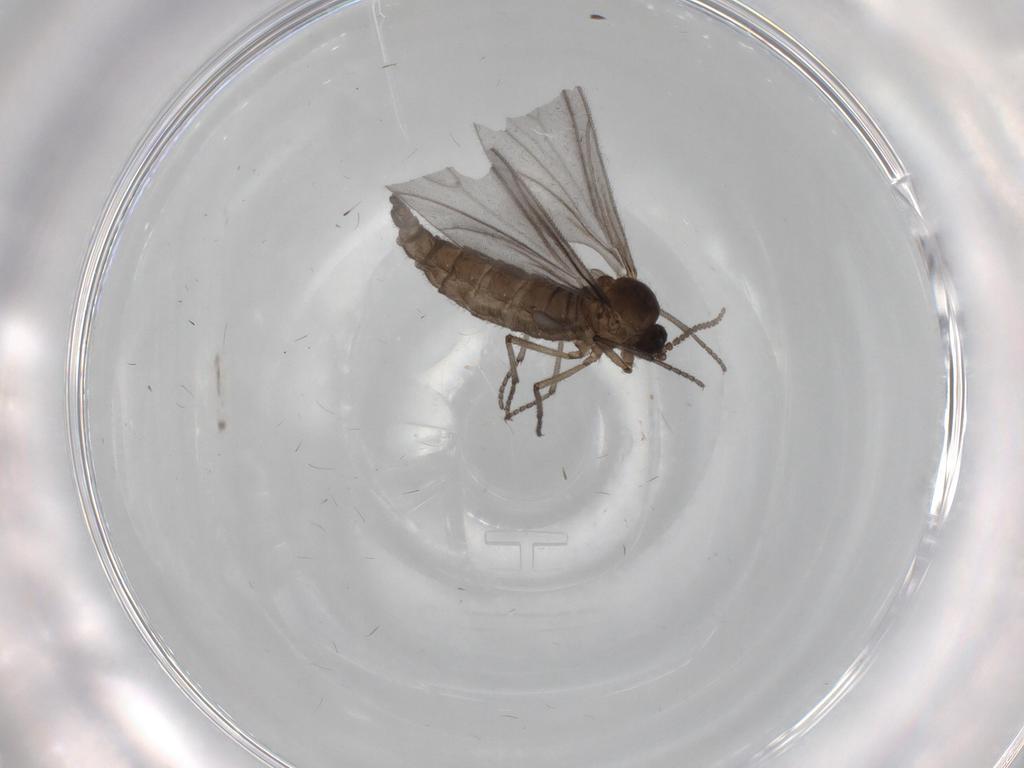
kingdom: Animalia
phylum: Arthropoda
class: Insecta
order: Diptera
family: Sciaridae
